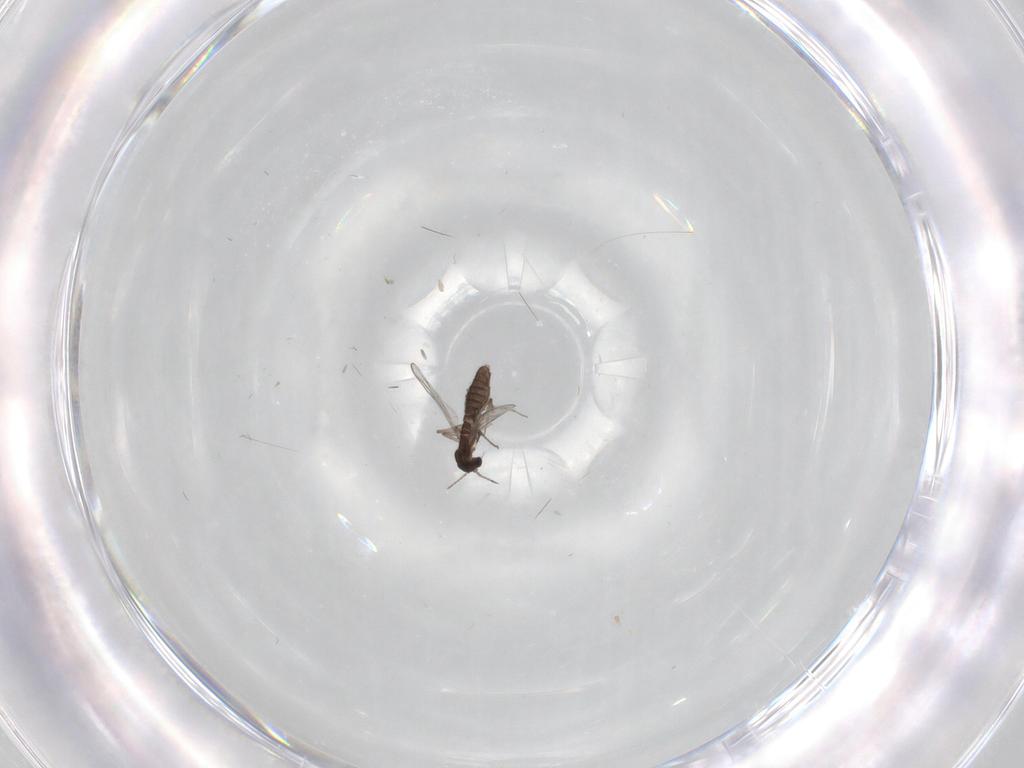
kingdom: Animalia
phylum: Arthropoda
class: Insecta
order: Diptera
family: Chironomidae
